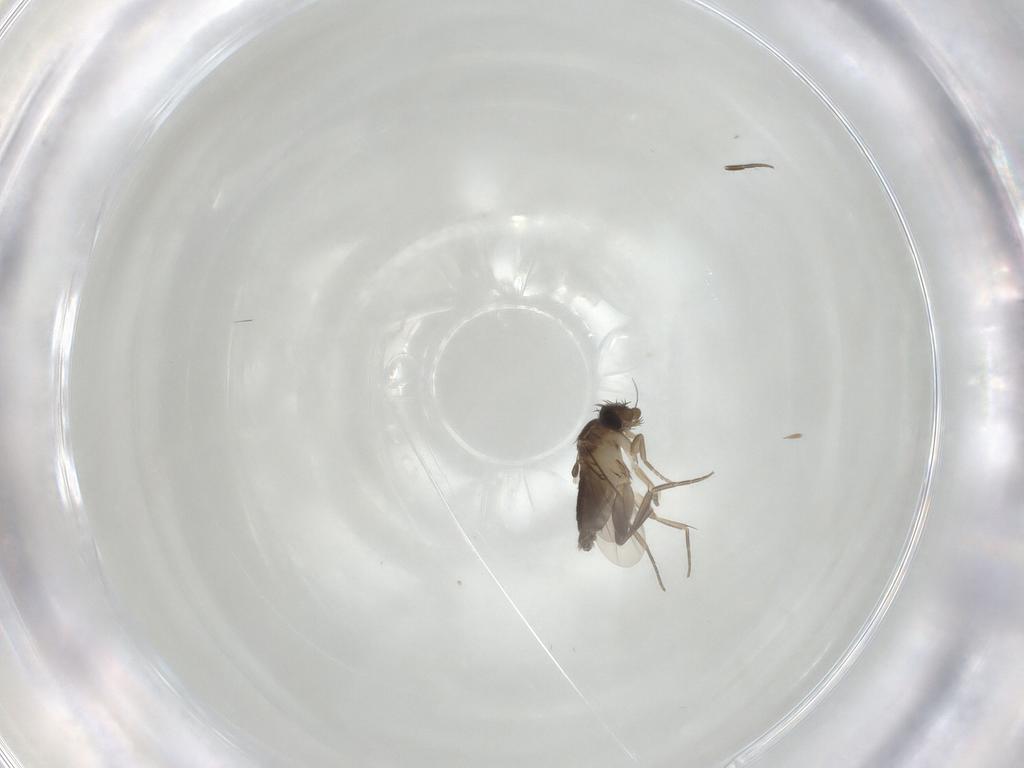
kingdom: Animalia
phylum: Arthropoda
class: Insecta
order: Diptera
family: Phoridae
